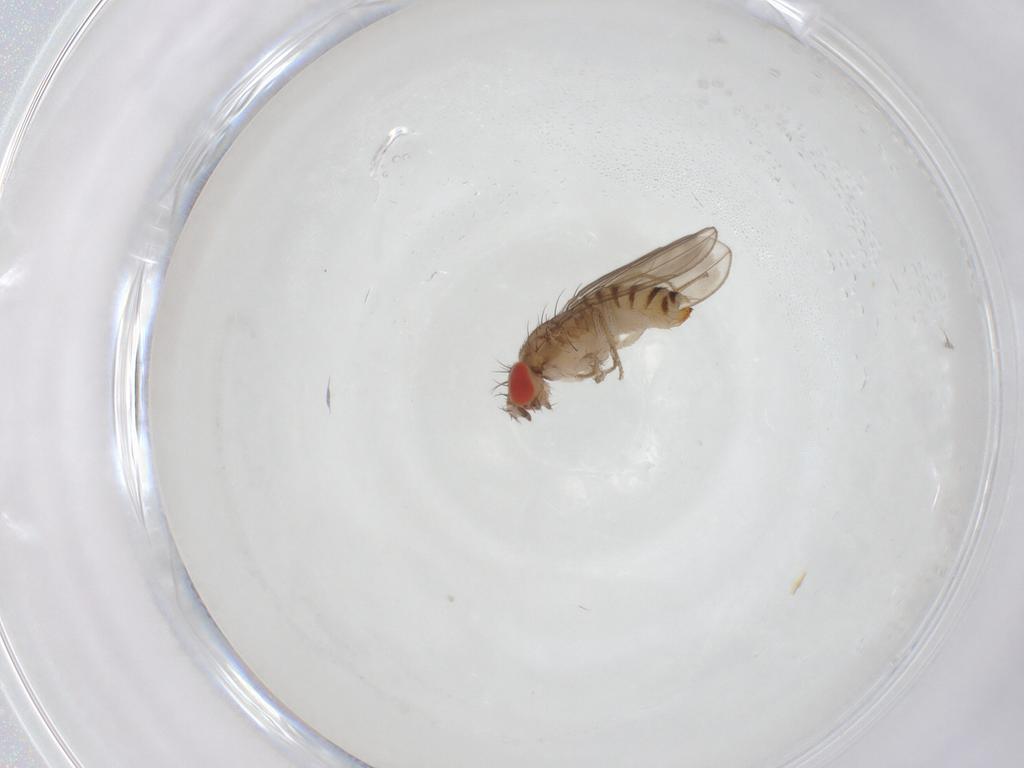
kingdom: Animalia
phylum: Arthropoda
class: Insecta
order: Diptera
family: Drosophilidae
